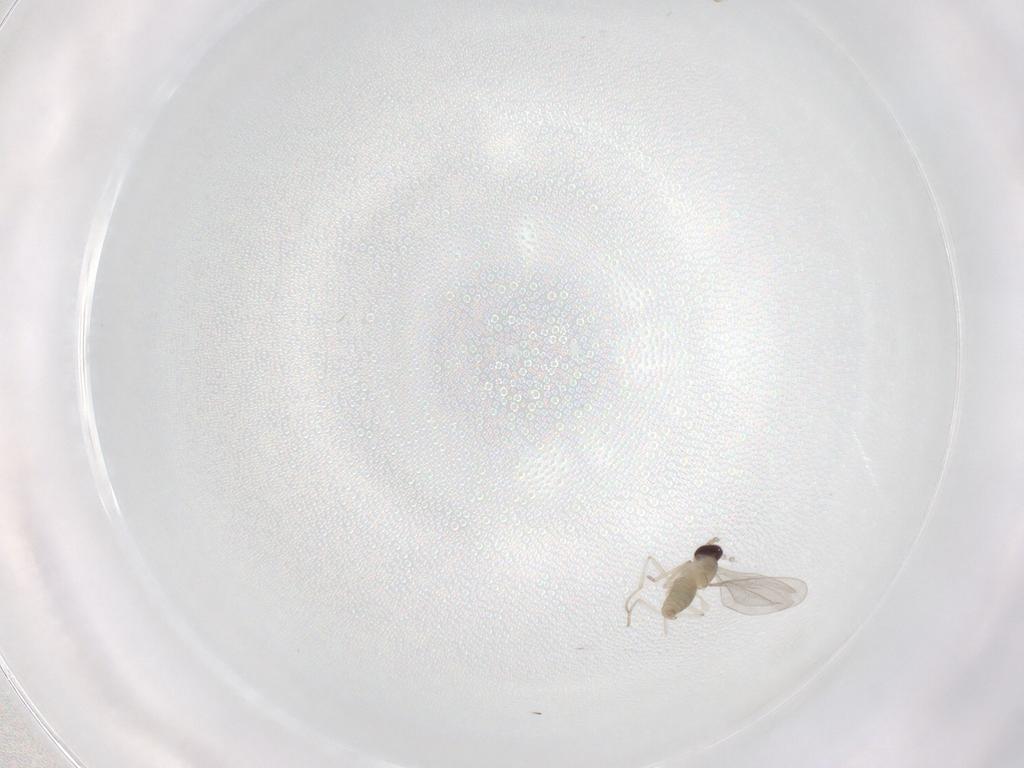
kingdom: Animalia
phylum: Arthropoda
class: Insecta
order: Diptera
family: Cecidomyiidae
